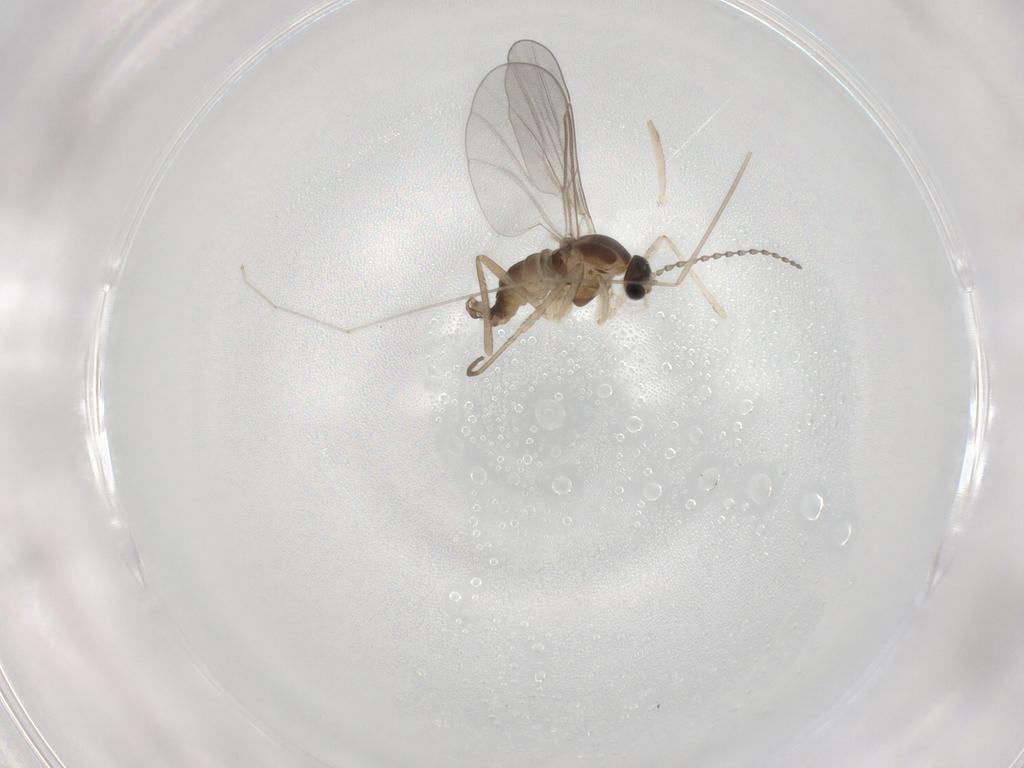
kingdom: Animalia
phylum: Arthropoda
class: Insecta
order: Diptera
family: Cecidomyiidae
